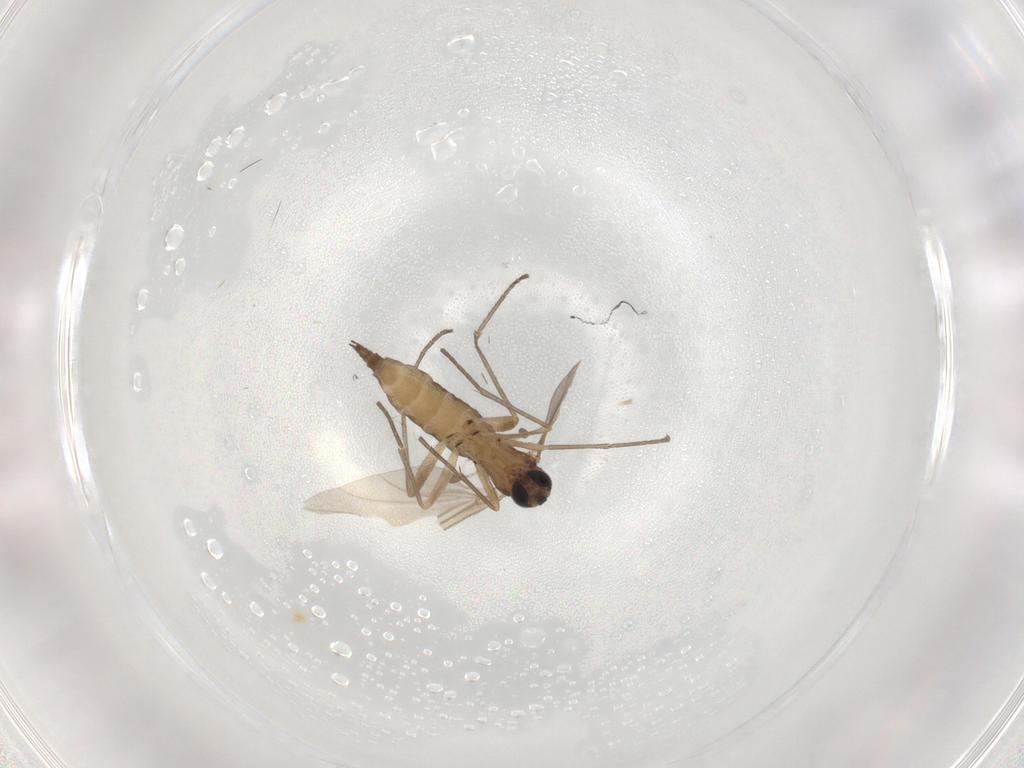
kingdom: Animalia
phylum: Arthropoda
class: Insecta
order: Diptera
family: Sciaridae
